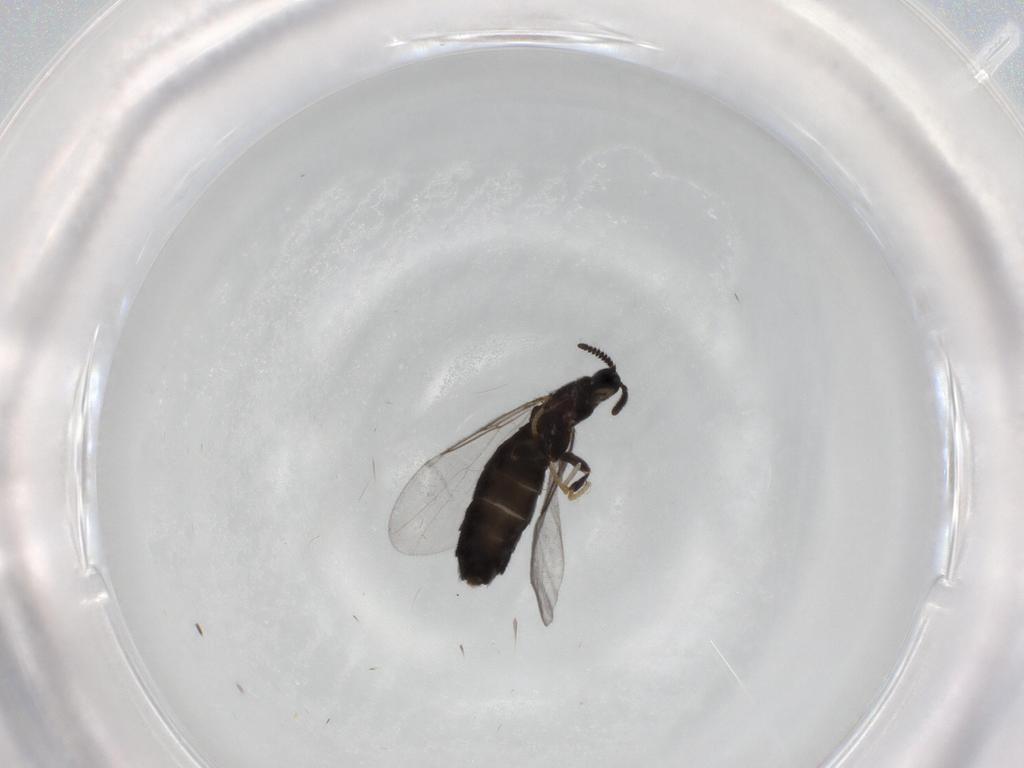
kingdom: Animalia
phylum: Arthropoda
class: Insecta
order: Diptera
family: Scatopsidae
